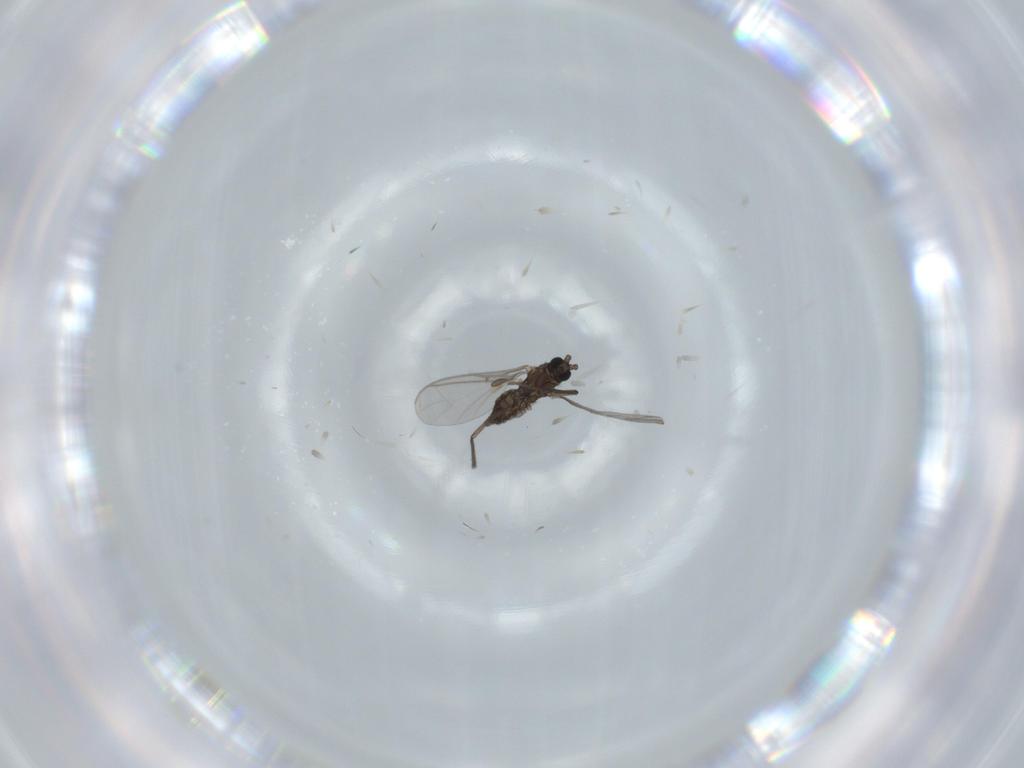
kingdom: Animalia
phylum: Arthropoda
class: Insecta
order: Diptera
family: Sciaridae
